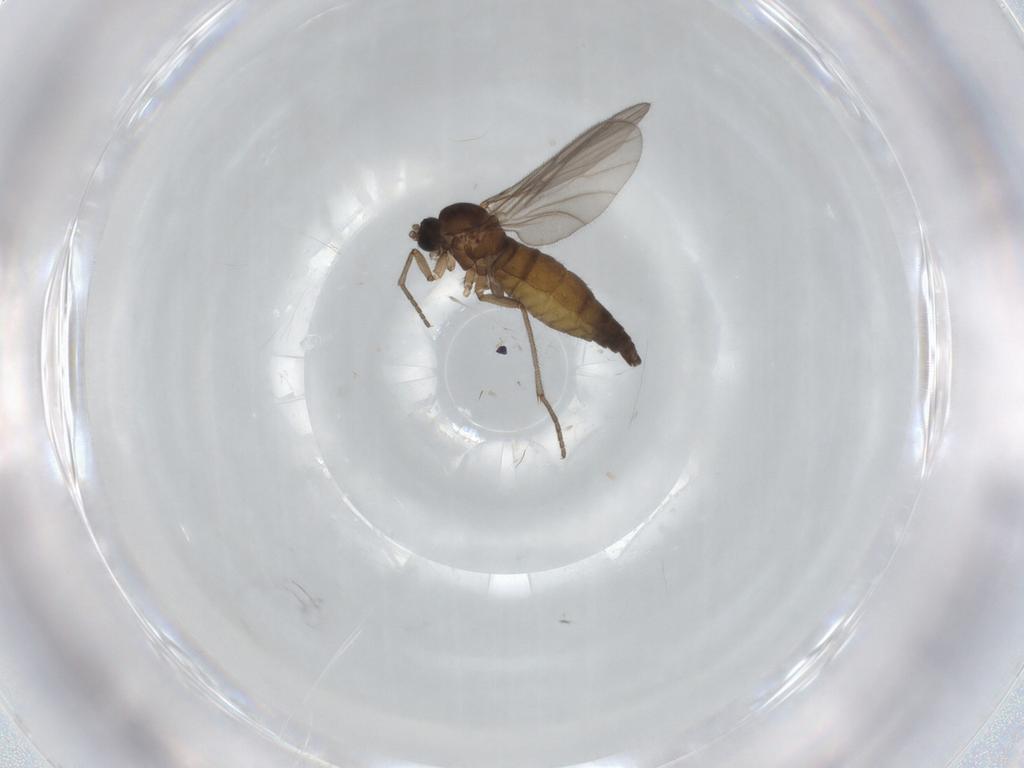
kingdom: Animalia
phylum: Arthropoda
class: Insecta
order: Diptera
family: Sciaridae
